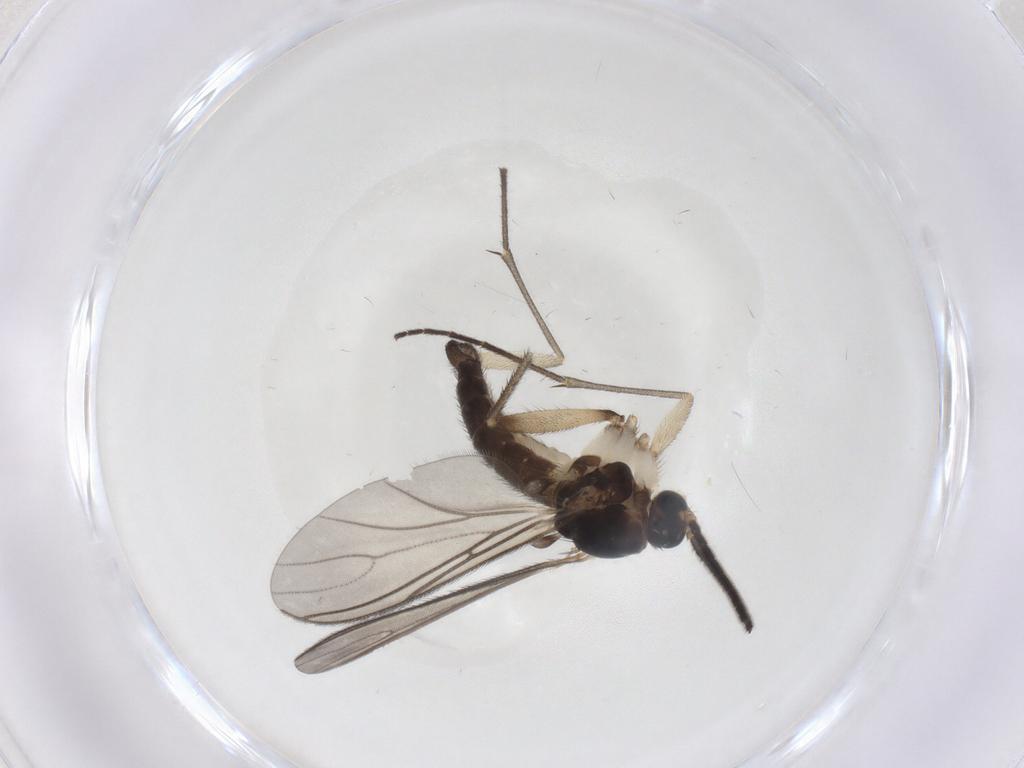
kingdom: Animalia
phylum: Arthropoda
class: Insecta
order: Diptera
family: Sciaridae
